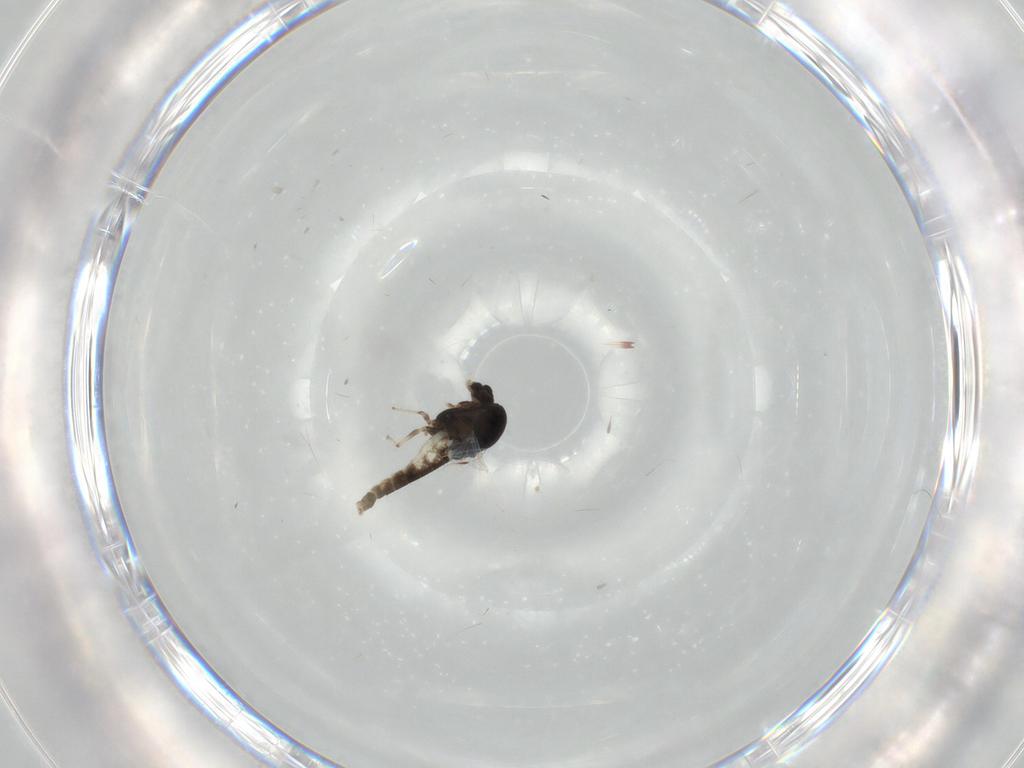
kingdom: Animalia
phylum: Arthropoda
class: Insecta
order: Diptera
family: Chironomidae
